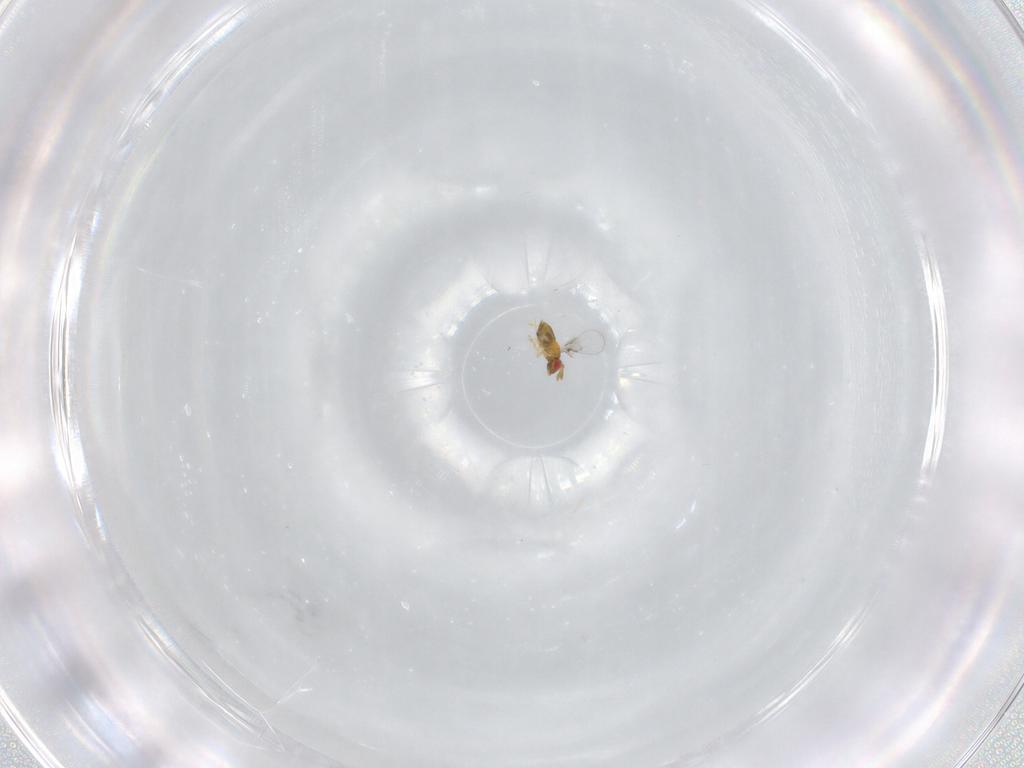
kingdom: Animalia
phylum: Arthropoda
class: Insecta
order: Hymenoptera
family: Trichogrammatidae
